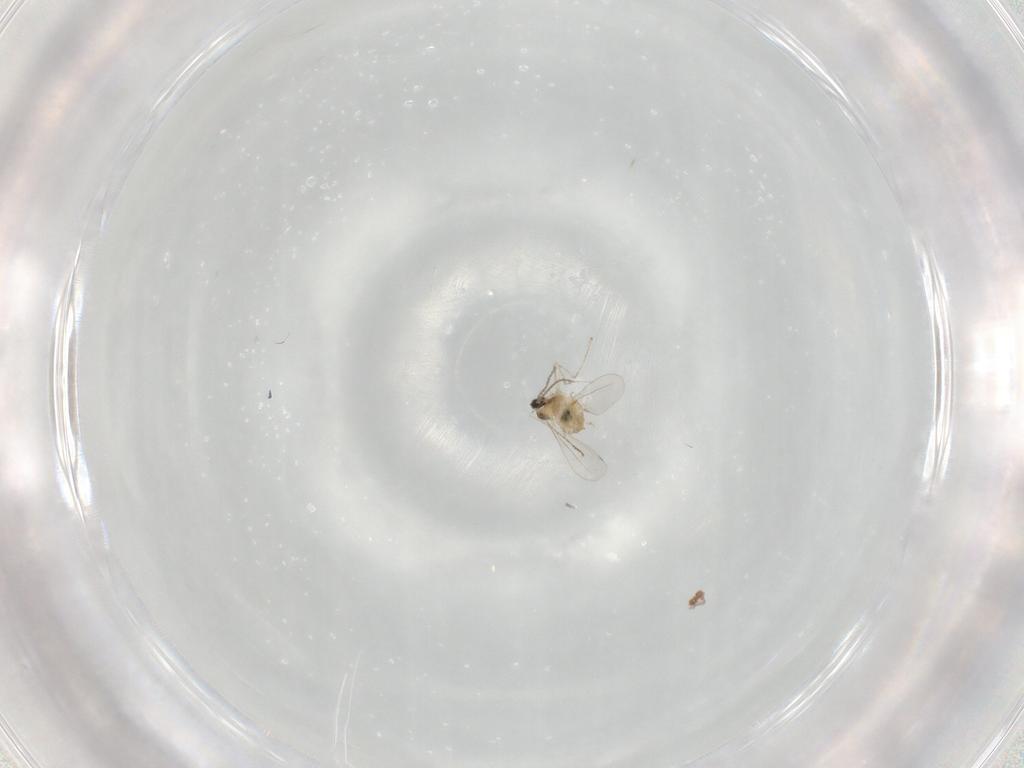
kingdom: Animalia
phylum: Arthropoda
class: Insecta
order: Diptera
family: Cecidomyiidae
